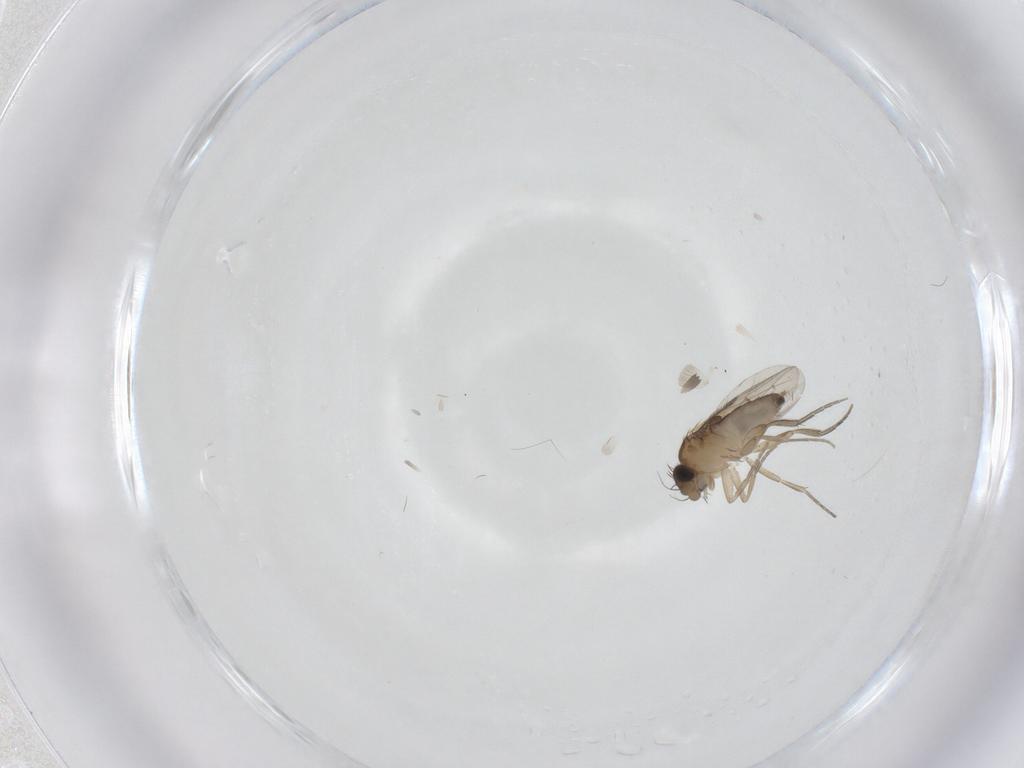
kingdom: Animalia
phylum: Arthropoda
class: Insecta
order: Diptera
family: Phoridae
